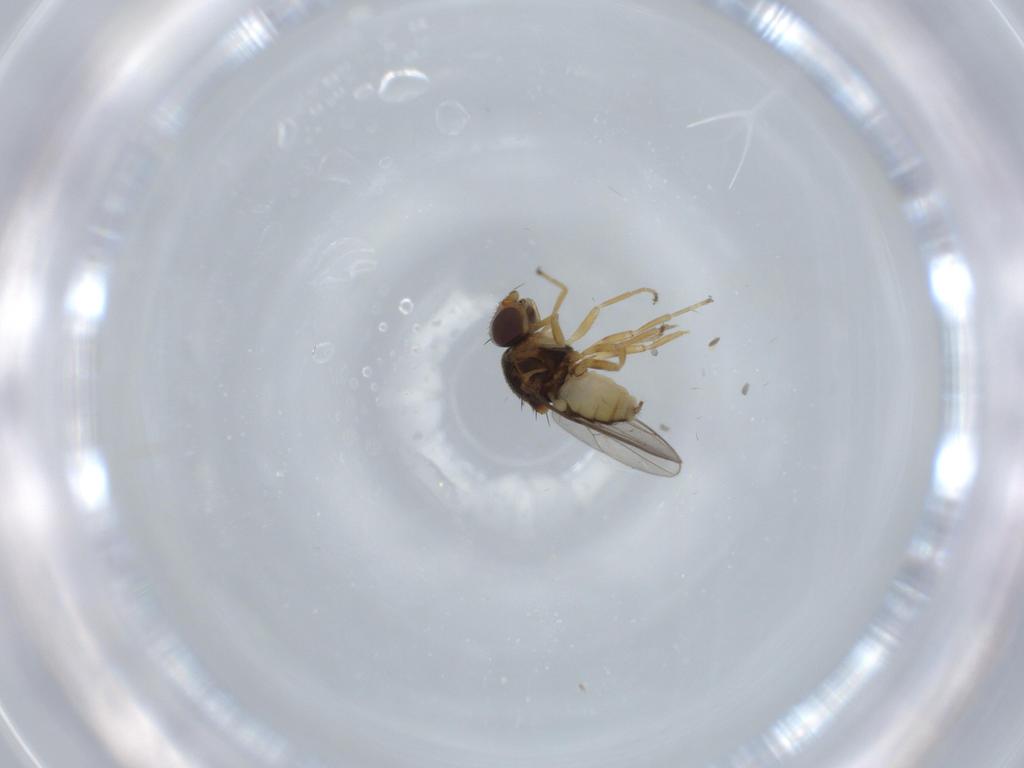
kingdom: Animalia
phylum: Arthropoda
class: Insecta
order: Diptera
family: Chloropidae
